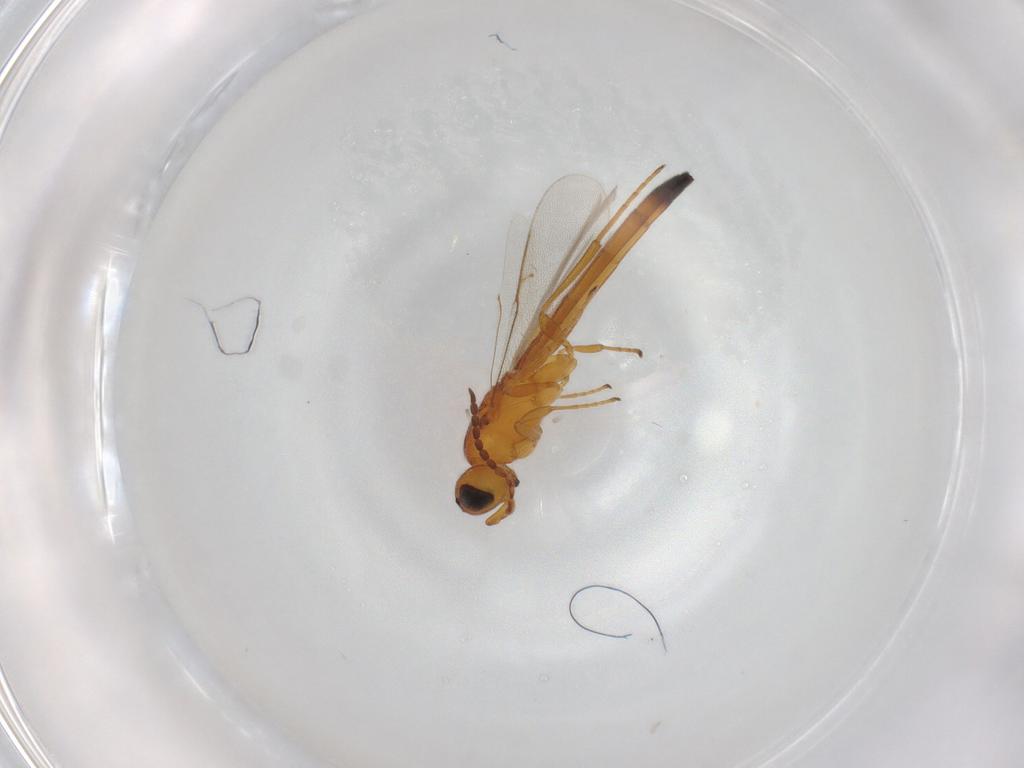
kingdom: Animalia
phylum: Arthropoda
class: Insecta
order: Hymenoptera
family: Scelionidae
